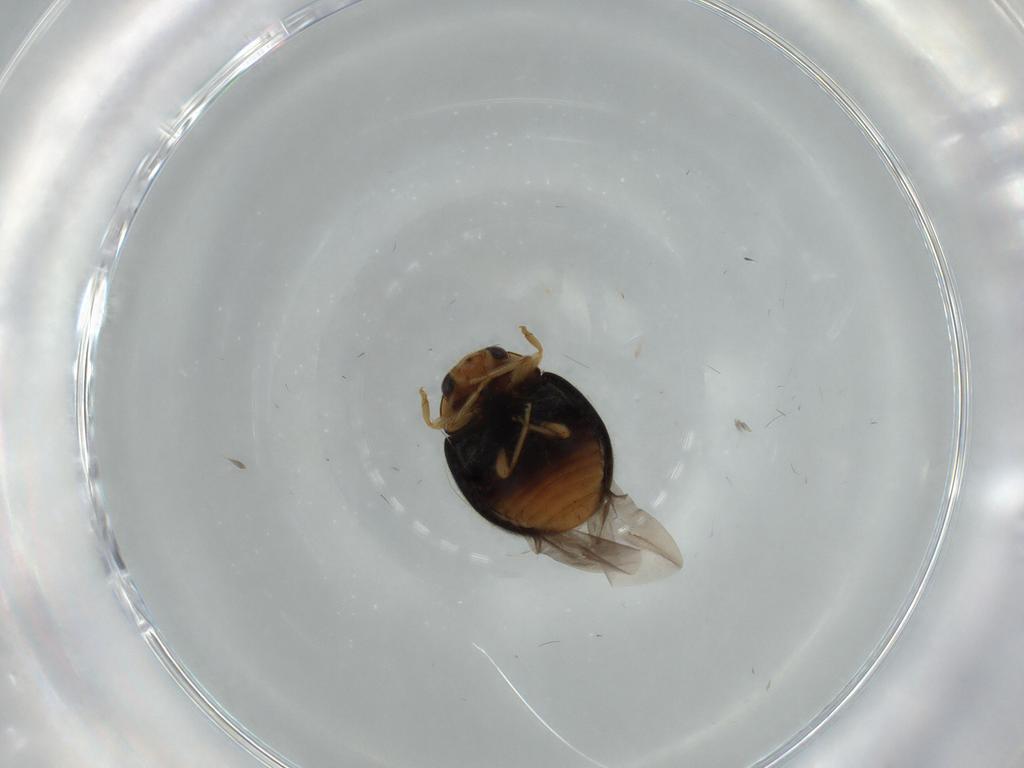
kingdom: Animalia
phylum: Arthropoda
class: Insecta
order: Coleoptera
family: Chrysomelidae
